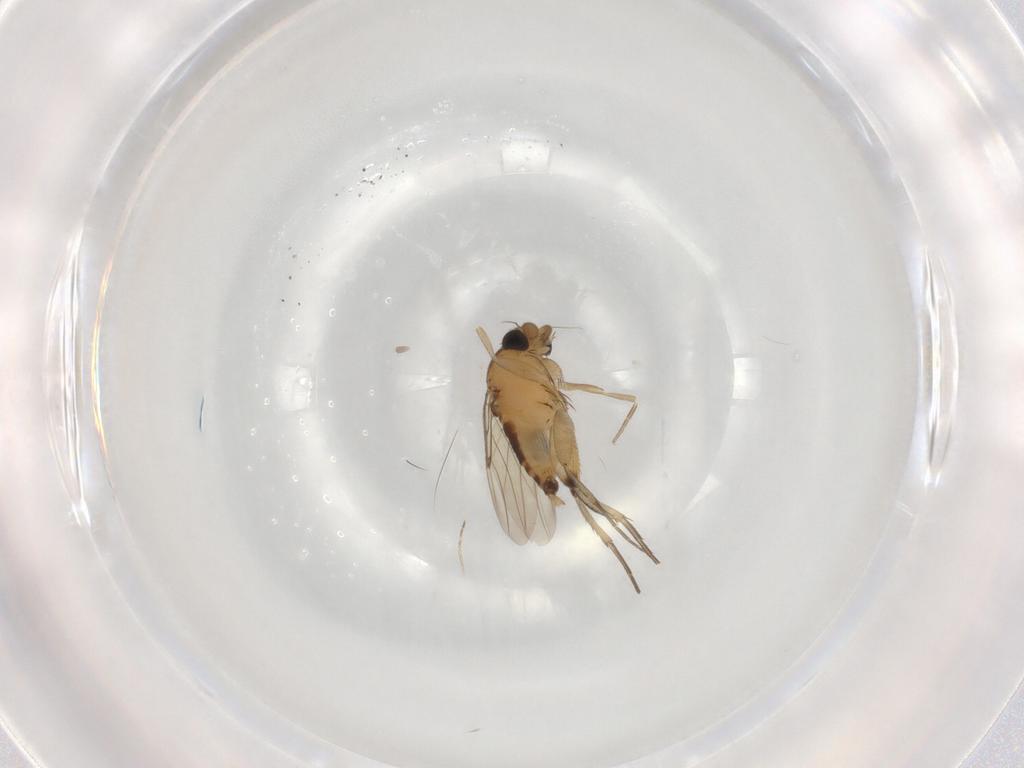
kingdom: Animalia
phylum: Arthropoda
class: Insecta
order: Diptera
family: Phoridae
